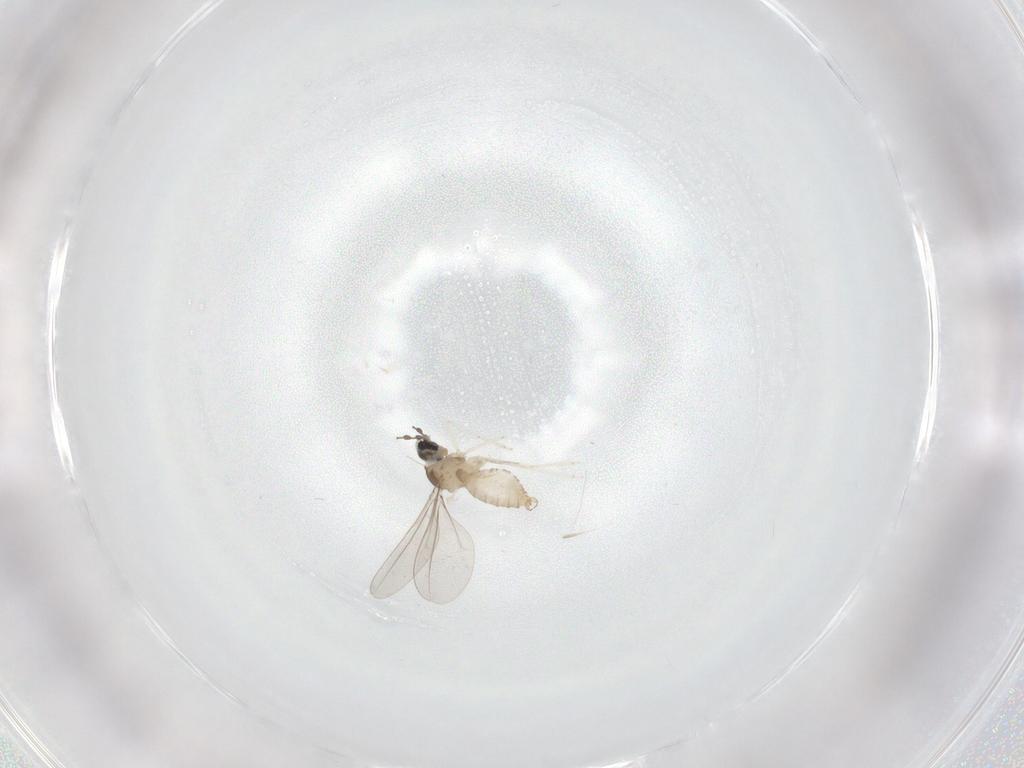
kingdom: Animalia
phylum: Arthropoda
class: Insecta
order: Diptera
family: Cecidomyiidae
